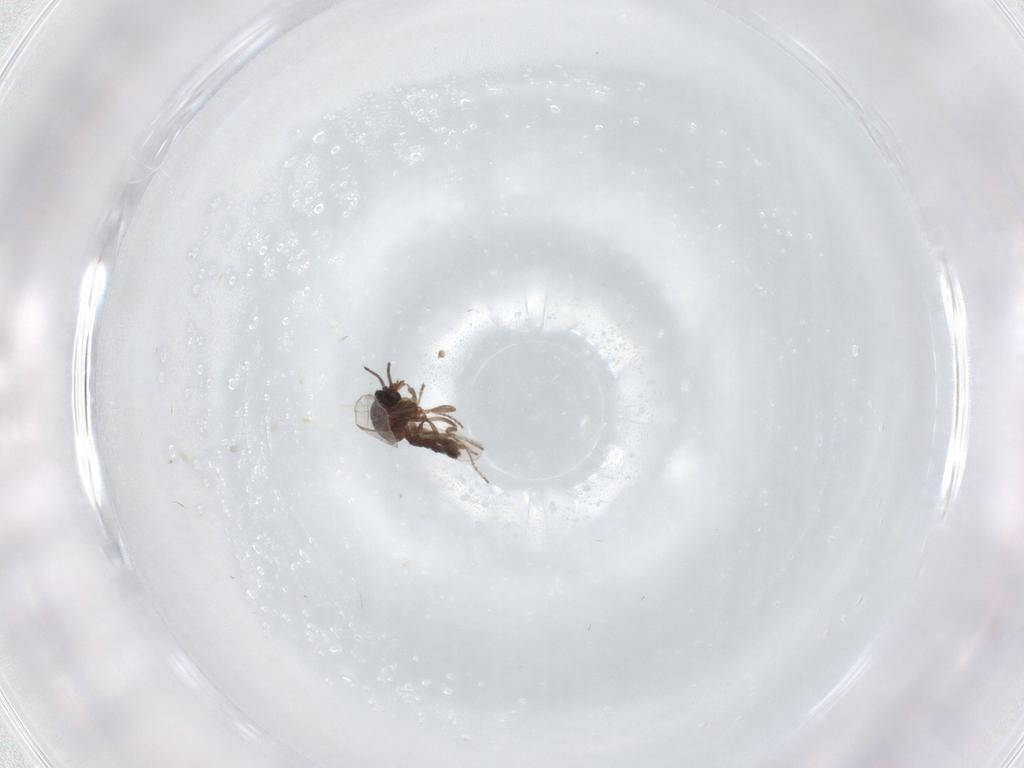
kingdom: Animalia
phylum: Arthropoda
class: Insecta
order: Diptera
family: Ceratopogonidae
